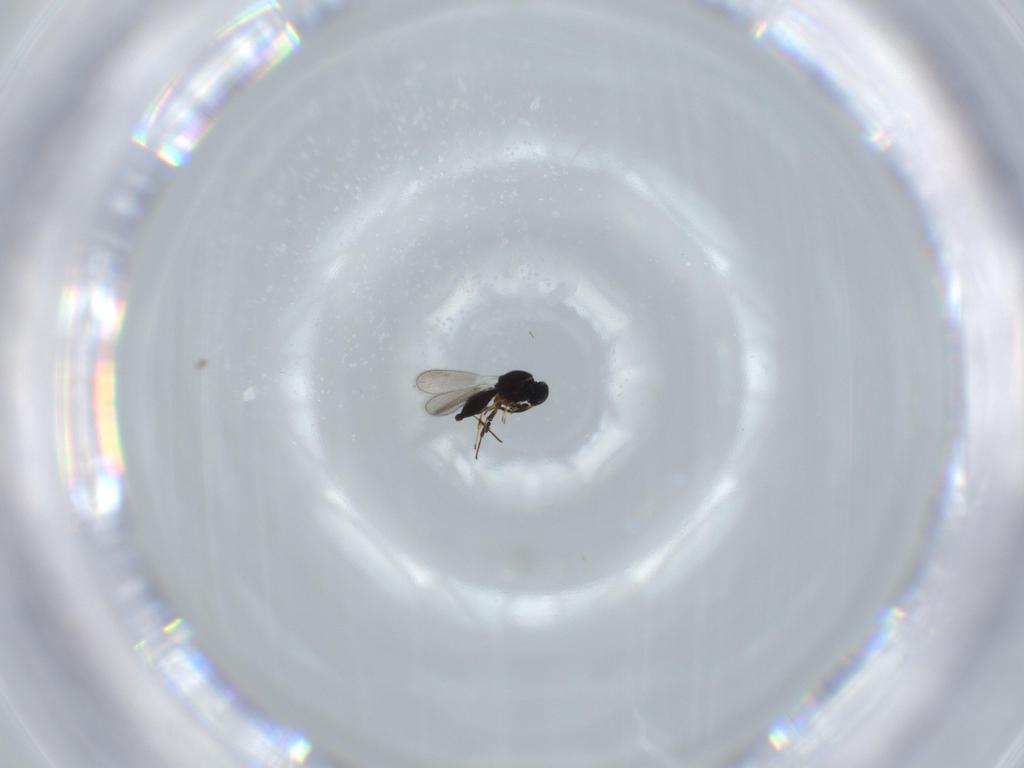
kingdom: Animalia
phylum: Arthropoda
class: Insecta
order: Hymenoptera
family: Platygastridae
